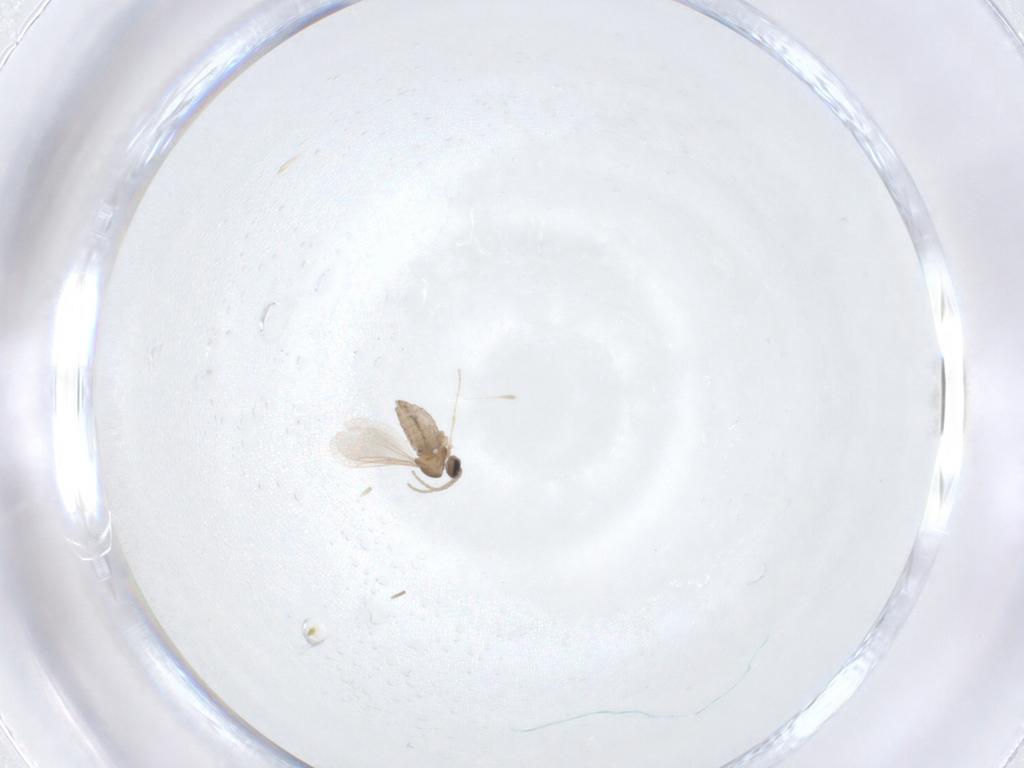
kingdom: Animalia
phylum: Arthropoda
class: Insecta
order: Diptera
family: Cecidomyiidae
